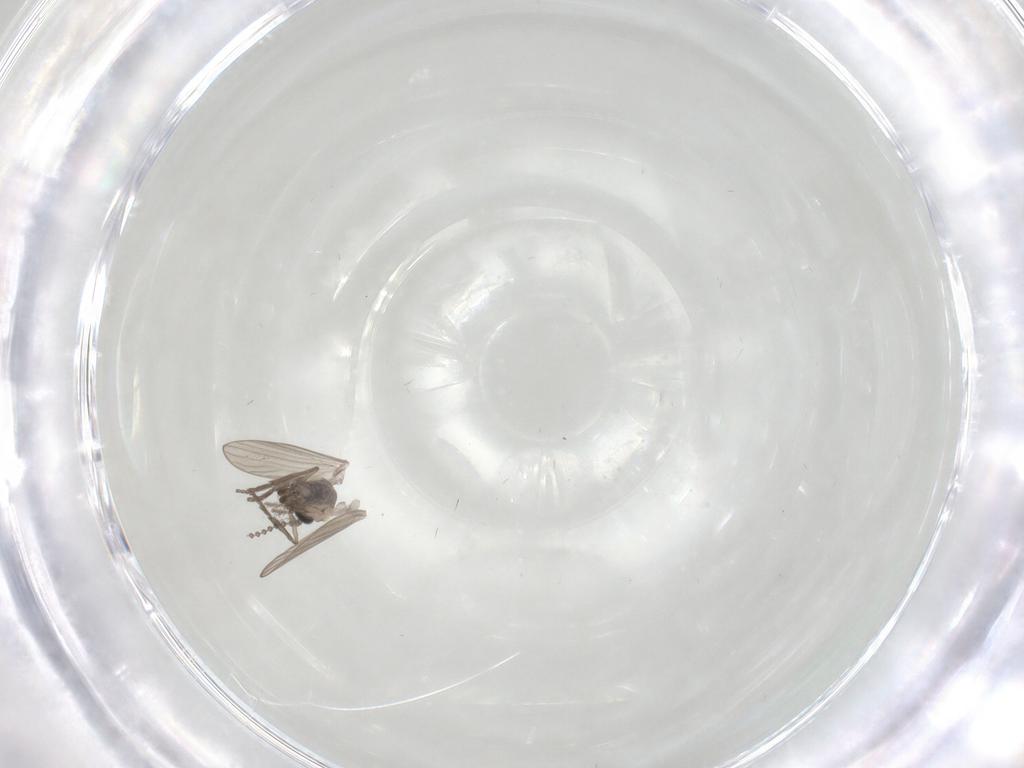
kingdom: Animalia
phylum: Arthropoda
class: Insecta
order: Diptera
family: Psychodidae
